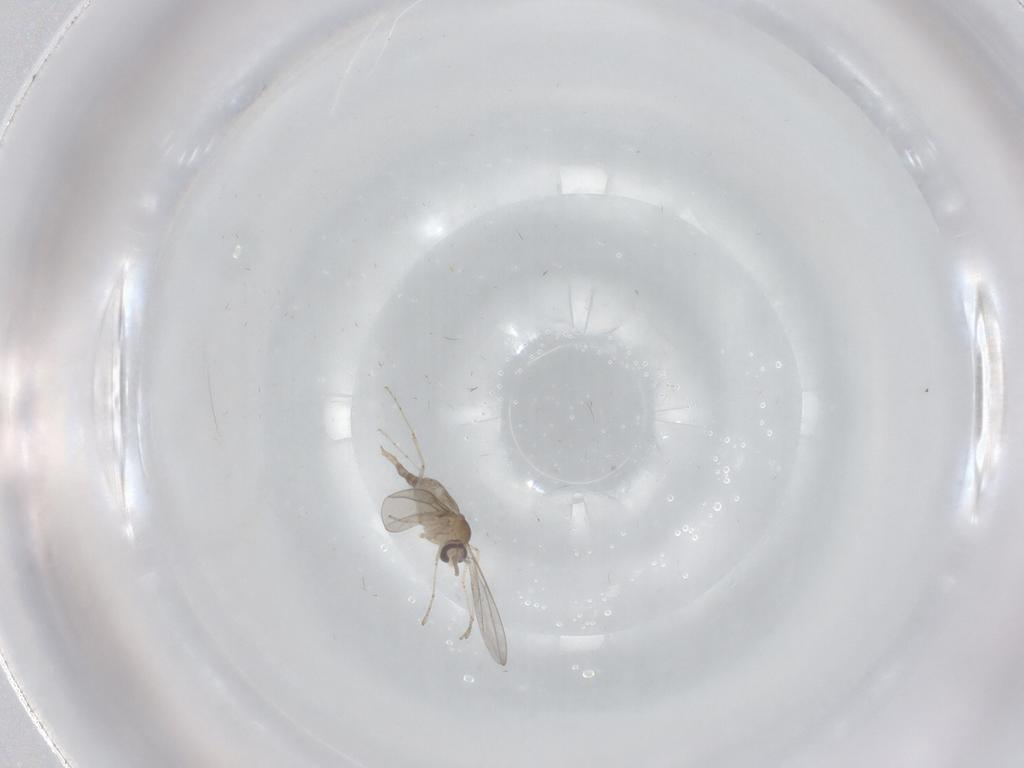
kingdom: Animalia
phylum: Arthropoda
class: Insecta
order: Diptera
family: Cecidomyiidae
